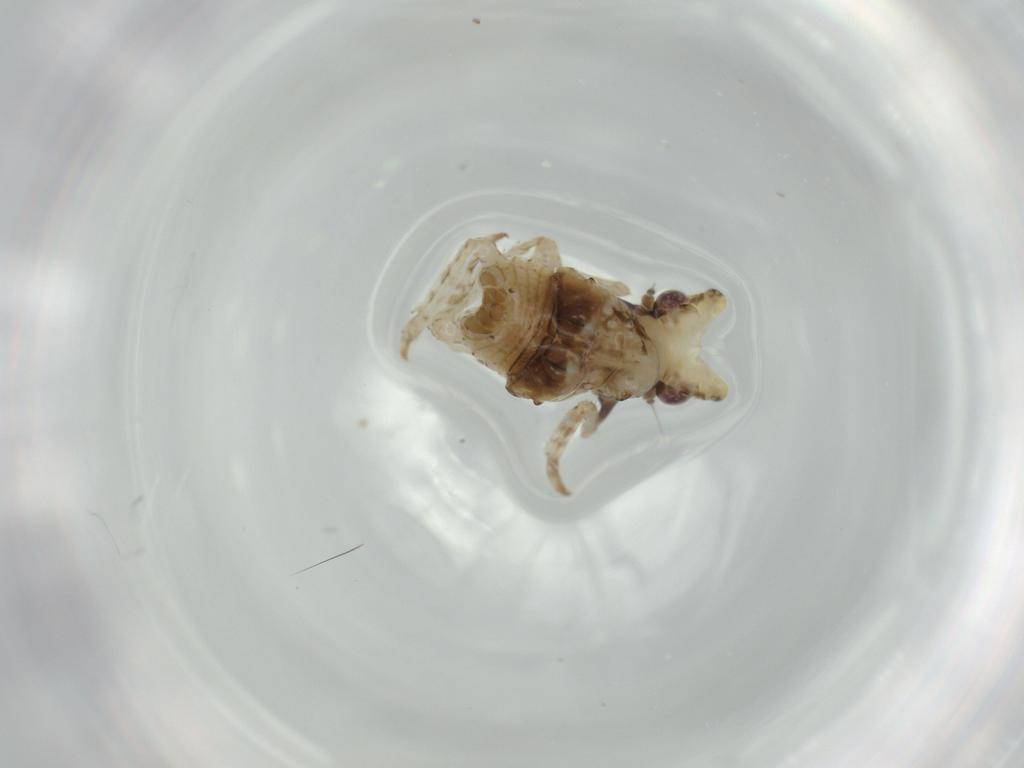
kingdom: Animalia
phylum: Arthropoda
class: Insecta
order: Hemiptera
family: Fulgoridae
